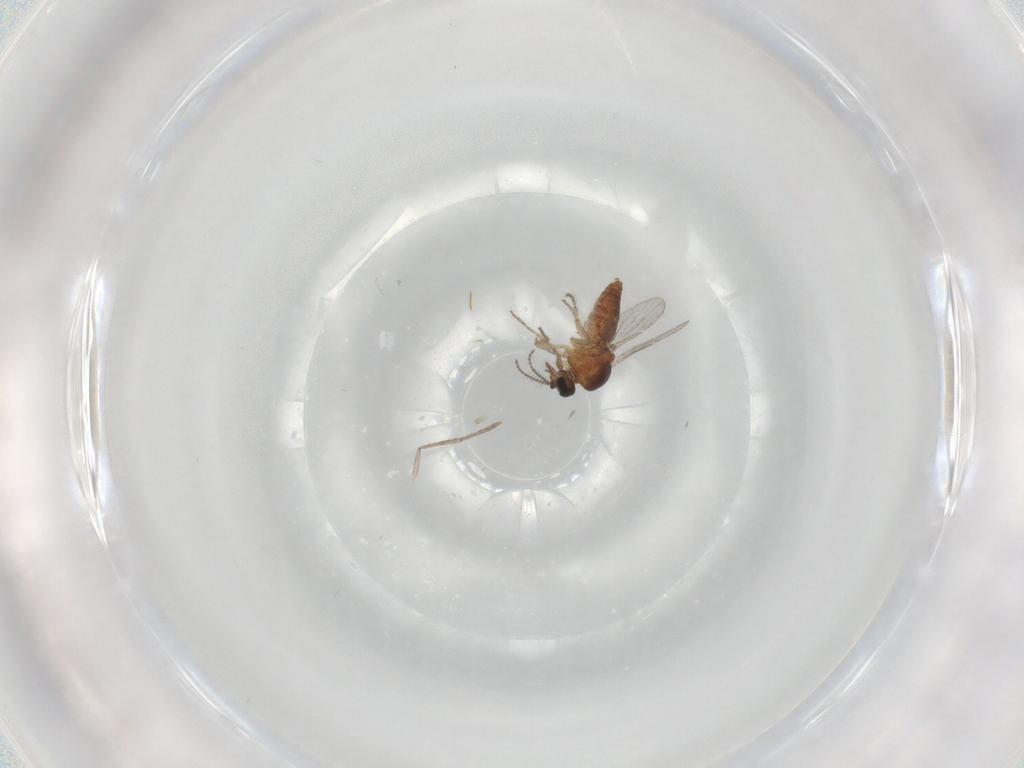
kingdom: Animalia
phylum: Arthropoda
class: Insecta
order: Diptera
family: Ceratopogonidae
